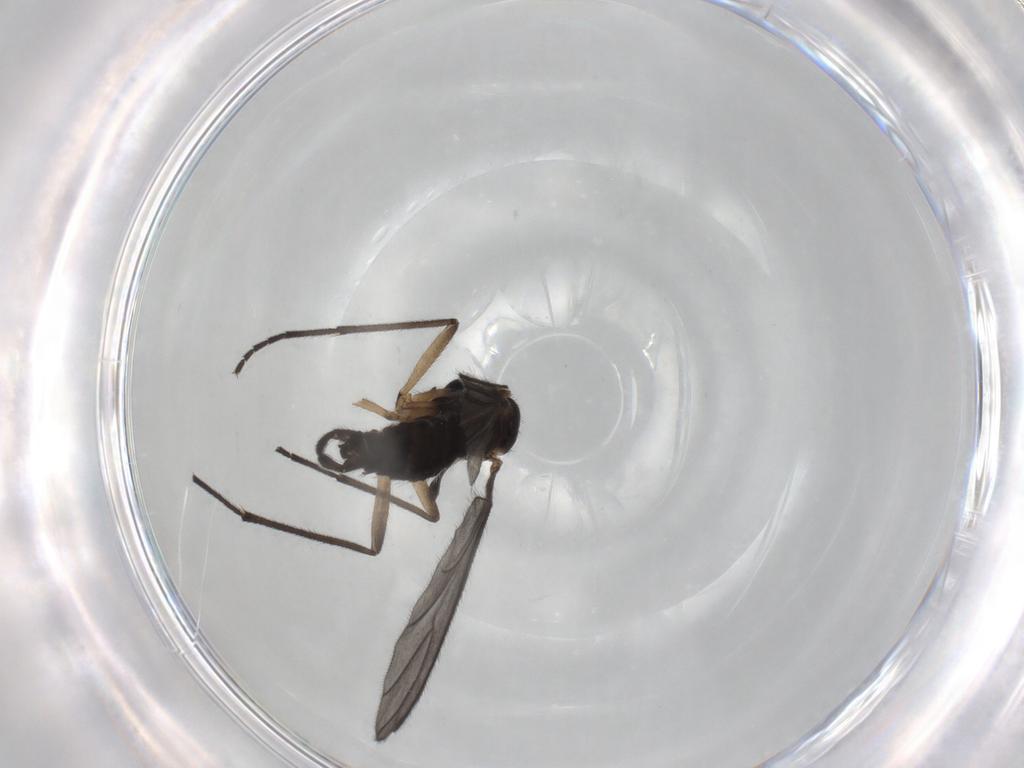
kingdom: Animalia
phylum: Arthropoda
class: Insecta
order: Diptera
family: Sciaridae
